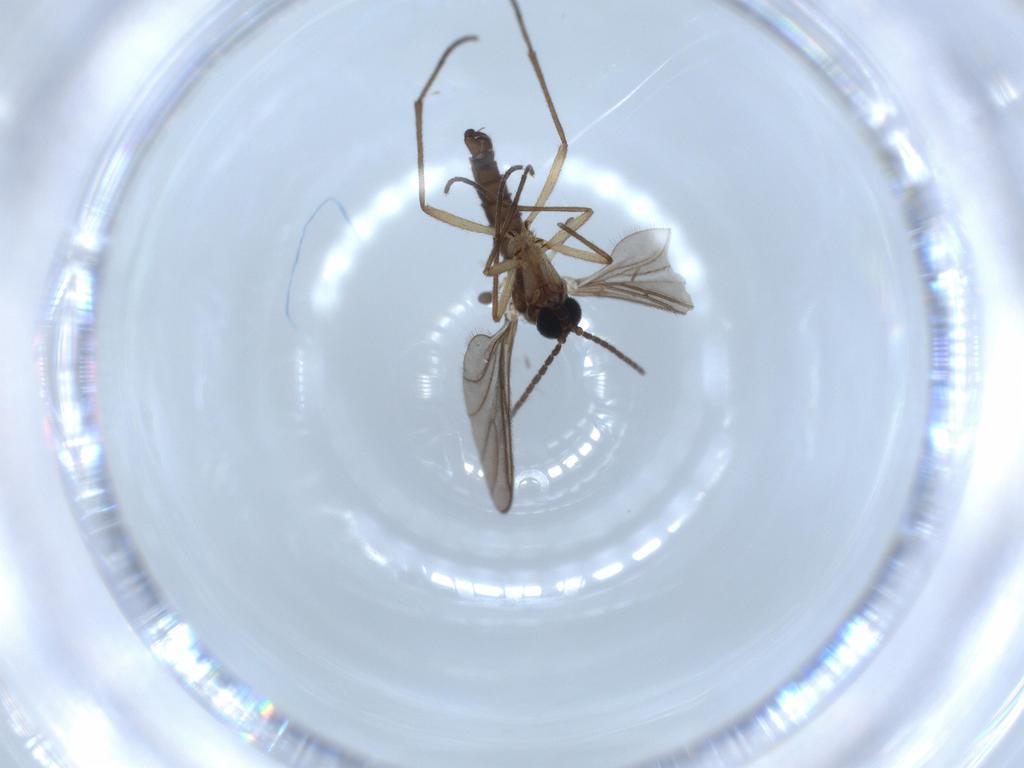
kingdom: Animalia
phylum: Arthropoda
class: Insecta
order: Diptera
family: Hybotidae
